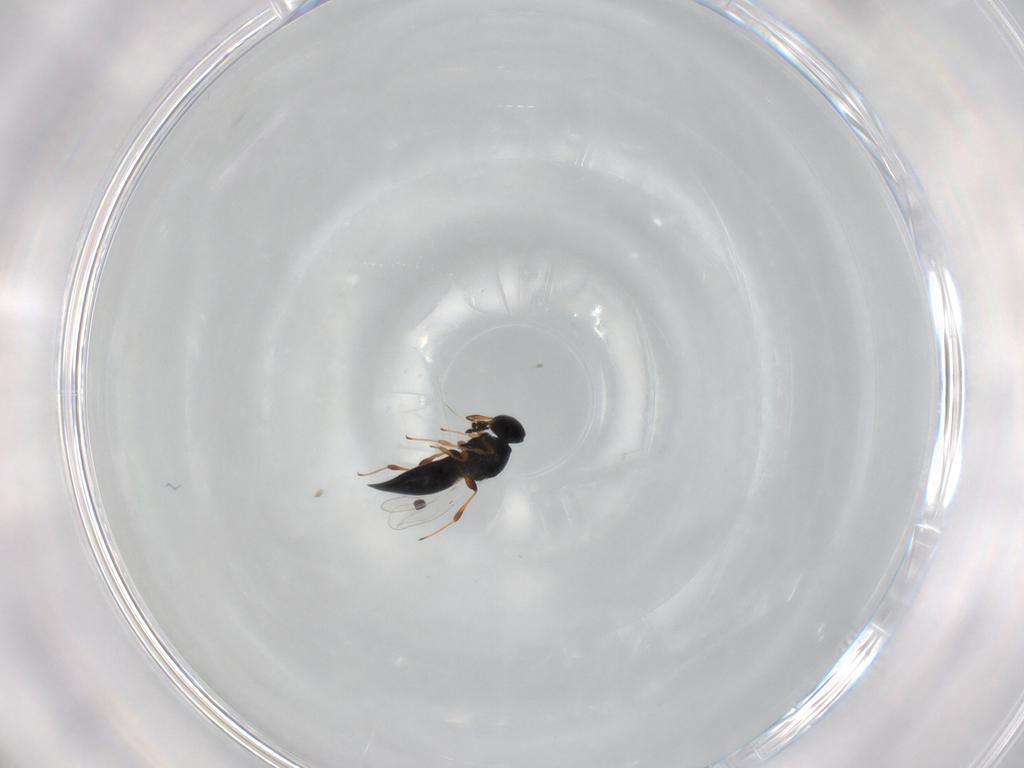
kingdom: Animalia
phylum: Arthropoda
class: Insecta
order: Hymenoptera
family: Platygastridae
